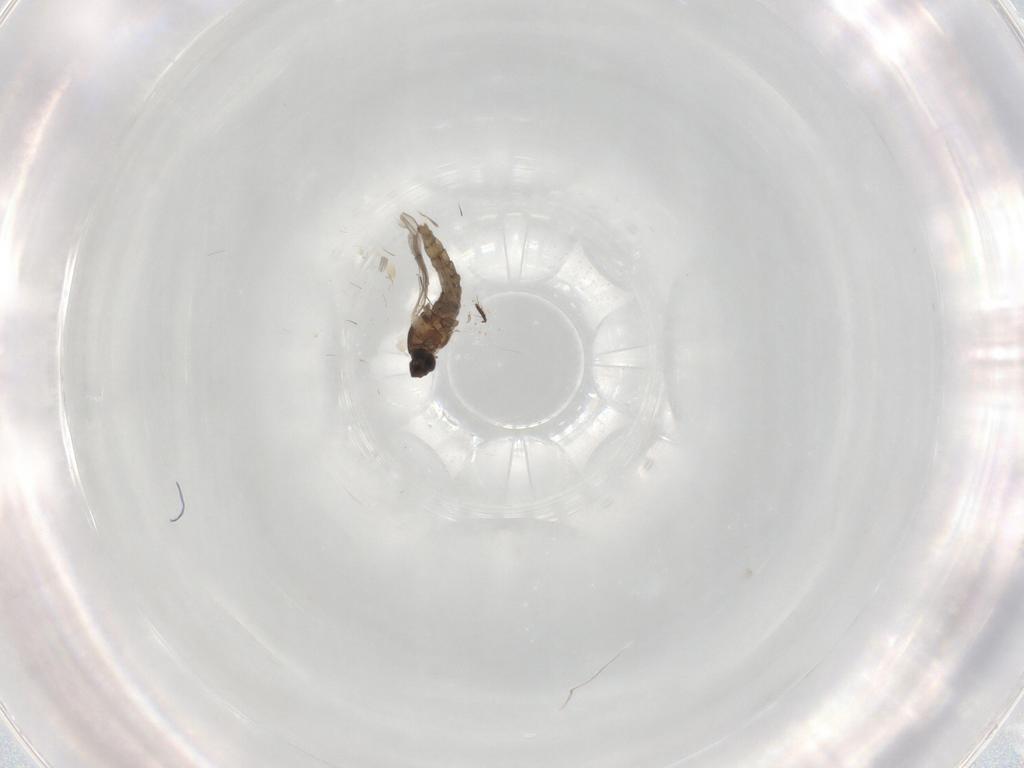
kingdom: Animalia
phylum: Arthropoda
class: Insecta
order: Diptera
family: Cecidomyiidae
